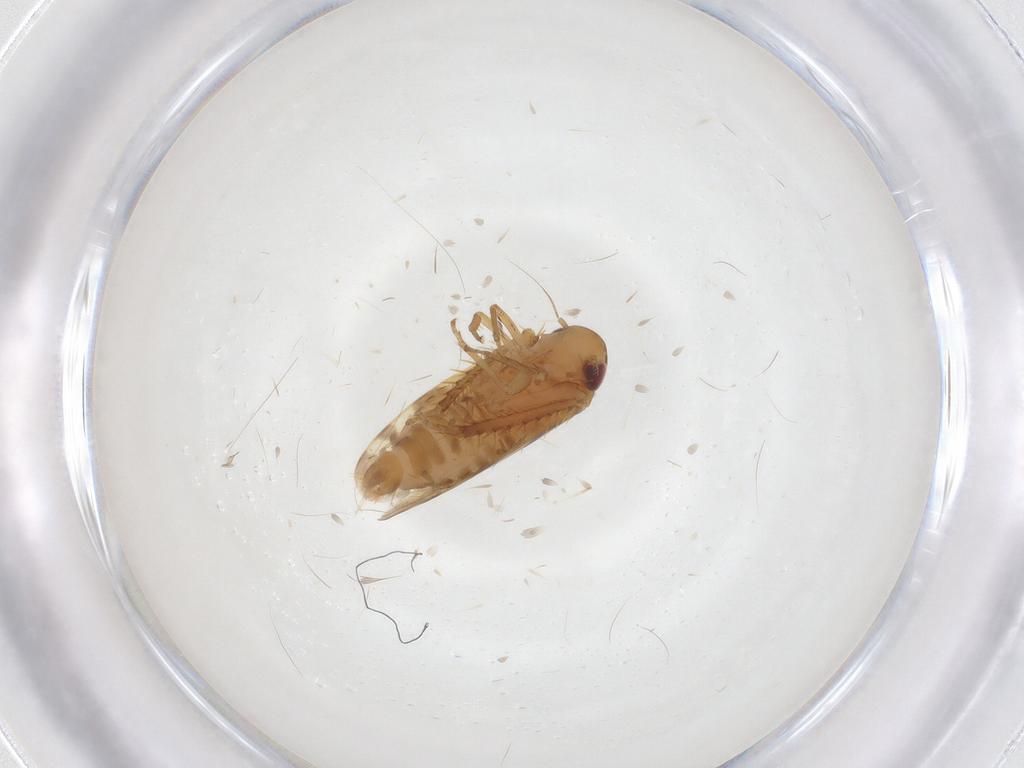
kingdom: Animalia
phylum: Arthropoda
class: Insecta
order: Hemiptera
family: Cicadellidae
